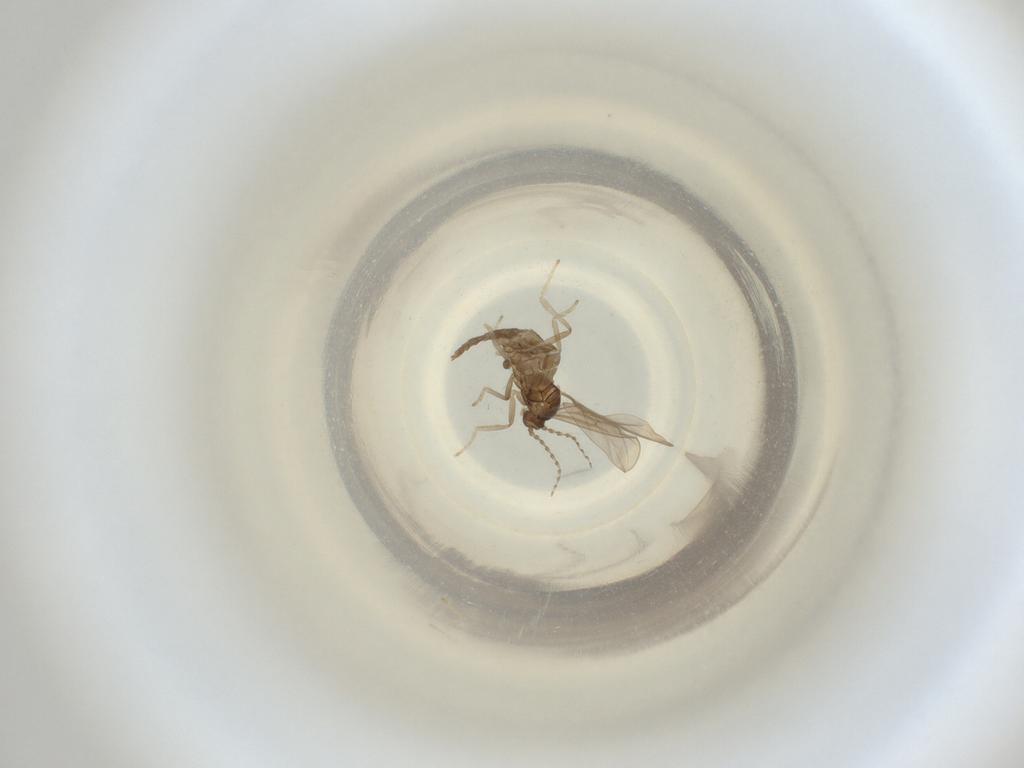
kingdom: Animalia
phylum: Arthropoda
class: Insecta
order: Diptera
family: Cecidomyiidae
